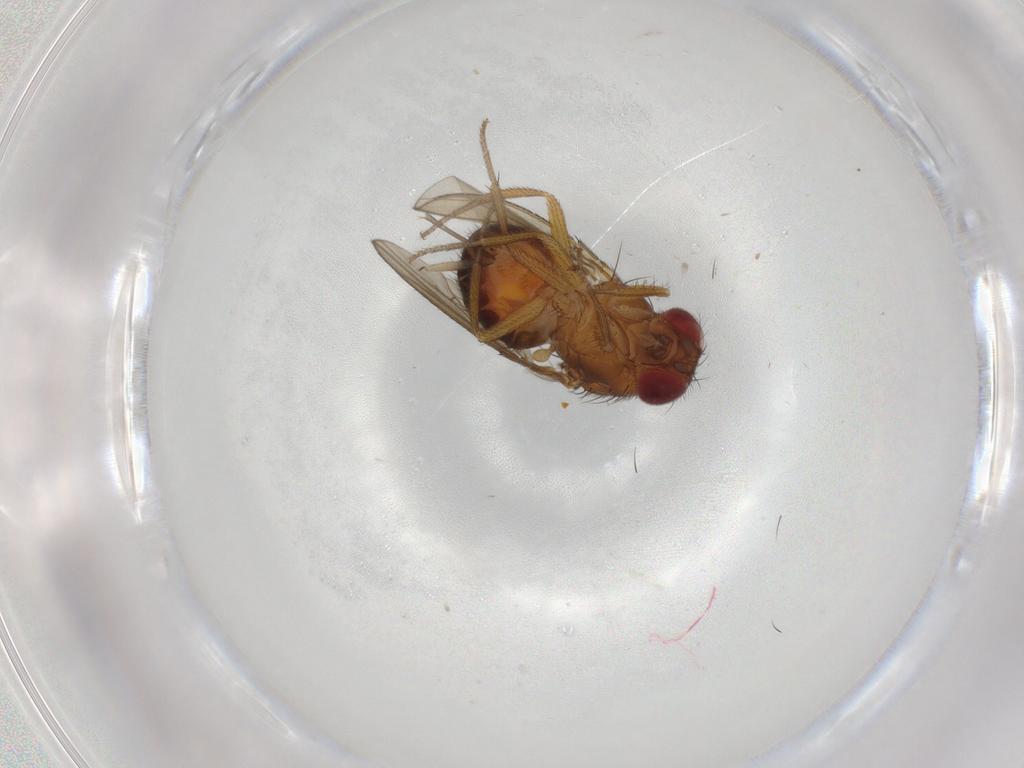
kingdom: Animalia
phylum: Arthropoda
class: Insecta
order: Diptera
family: Drosophilidae
